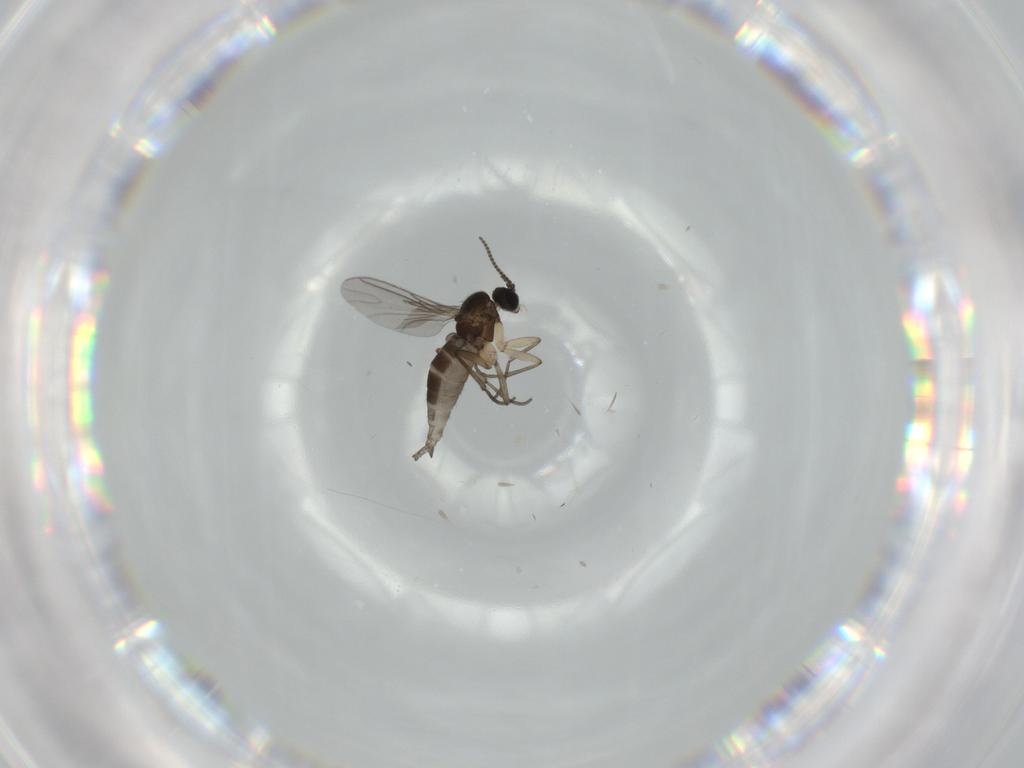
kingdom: Animalia
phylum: Arthropoda
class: Insecta
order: Diptera
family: Sciaridae
